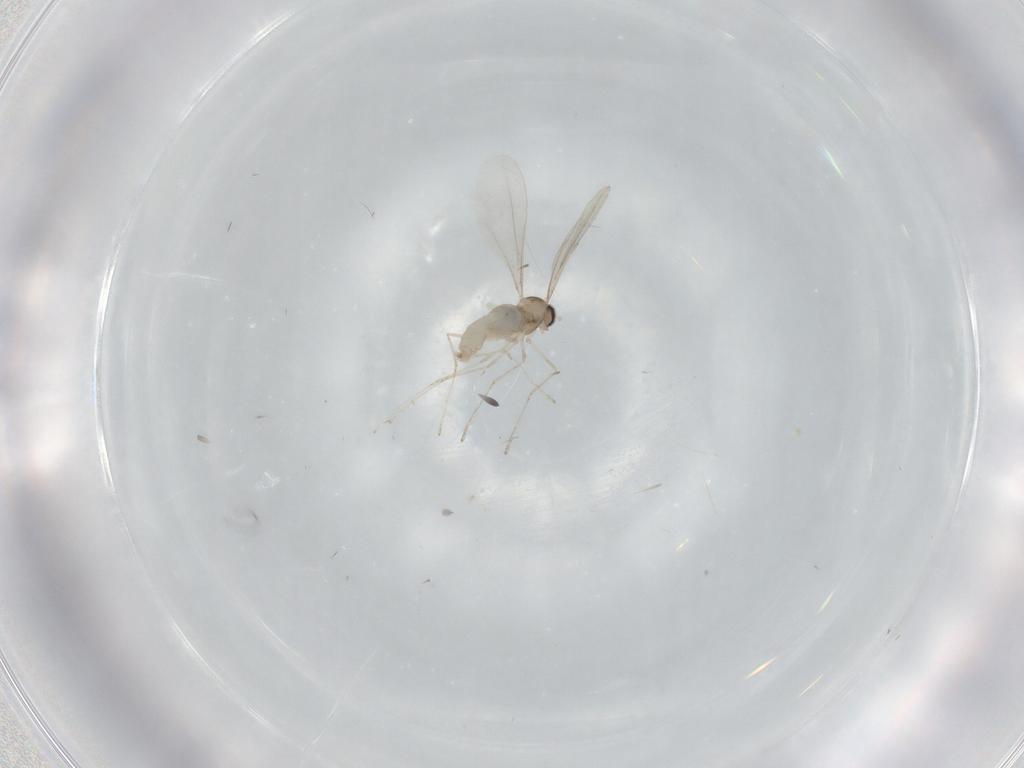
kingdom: Animalia
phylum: Arthropoda
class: Insecta
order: Diptera
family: Cecidomyiidae
